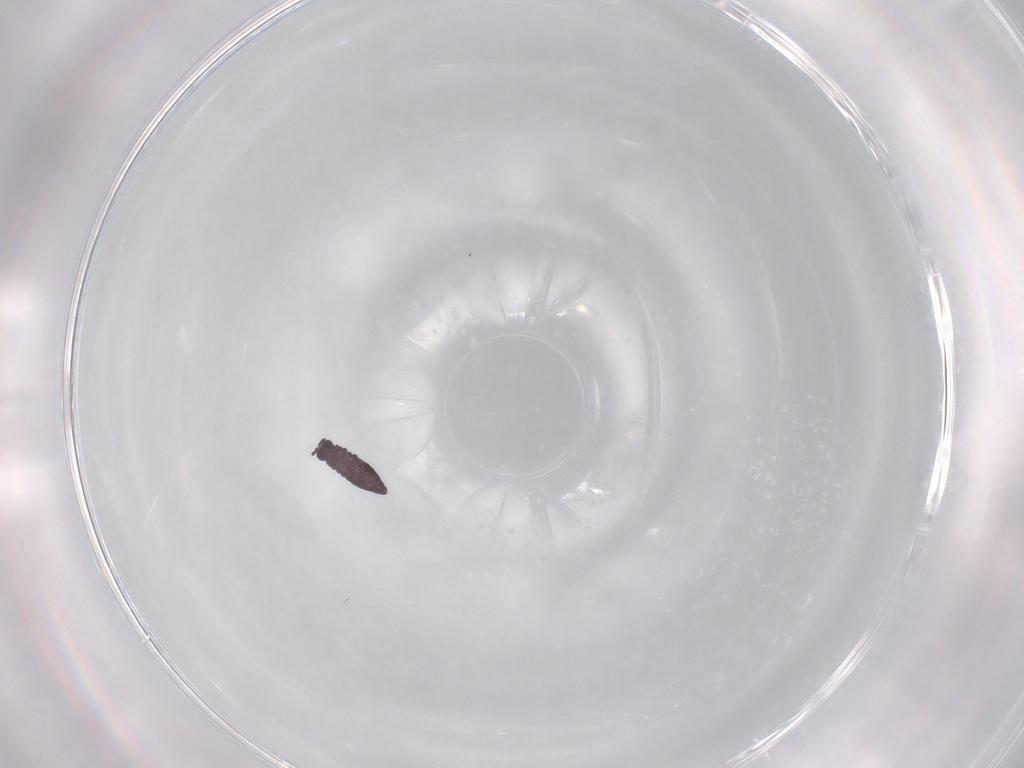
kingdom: Animalia
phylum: Arthropoda
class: Collembola
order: Poduromorpha
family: Hypogastruridae
